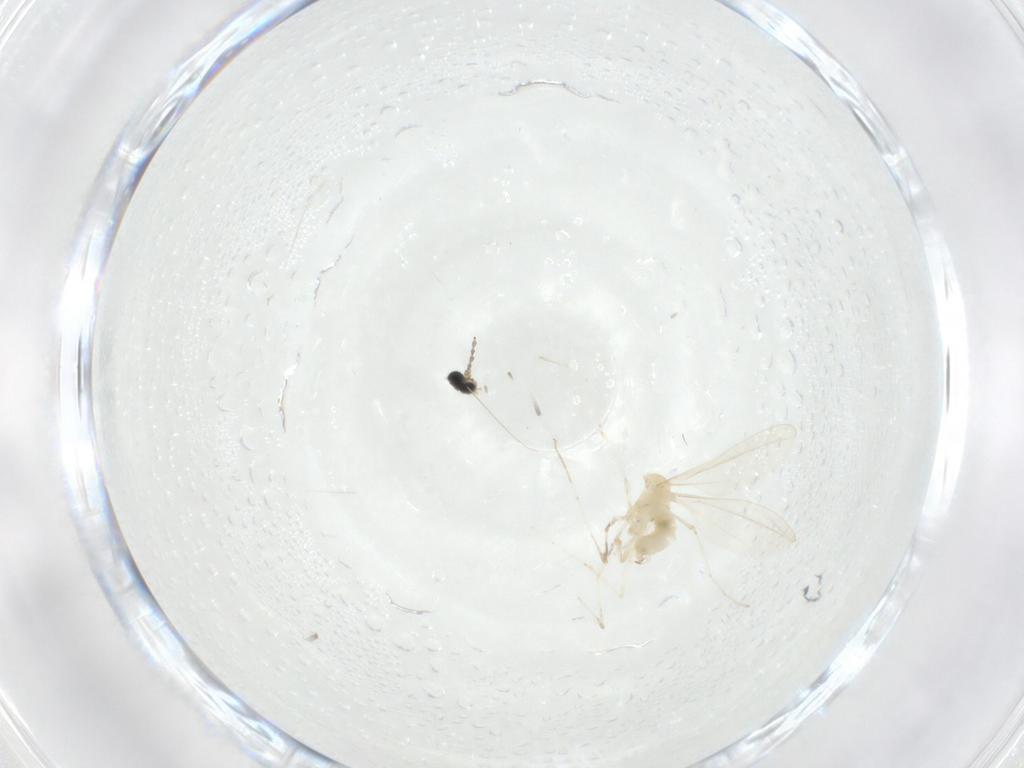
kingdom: Animalia
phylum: Arthropoda
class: Insecta
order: Diptera
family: Cecidomyiidae
